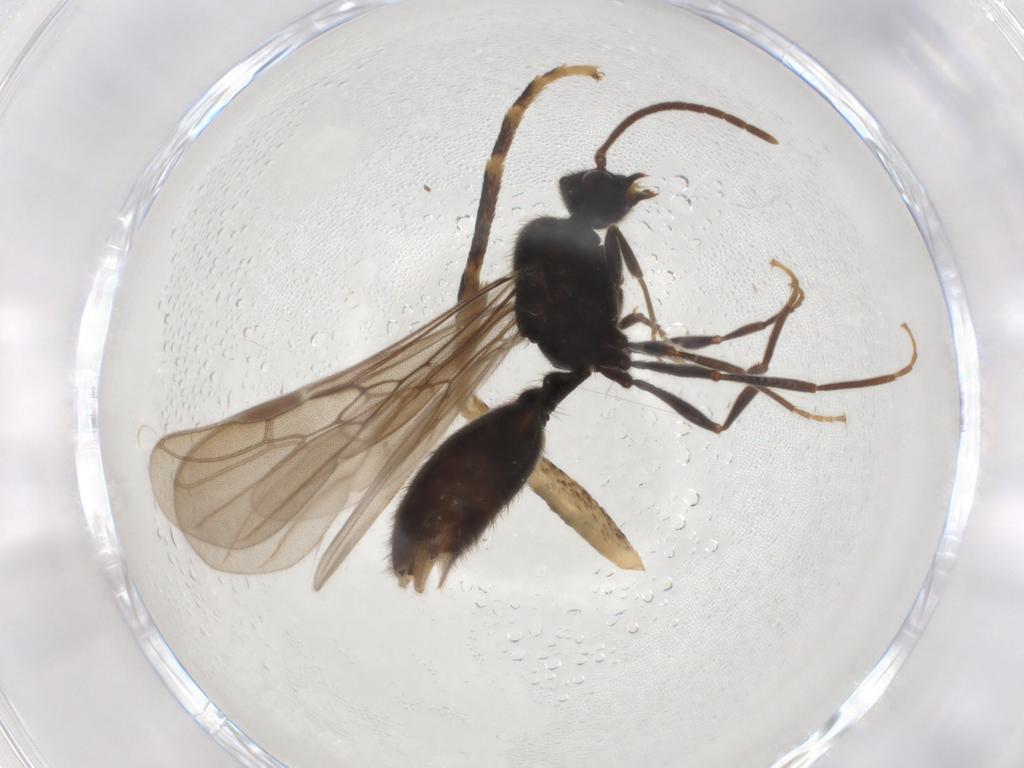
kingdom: Animalia
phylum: Arthropoda
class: Insecta
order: Hymenoptera
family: Formicidae
